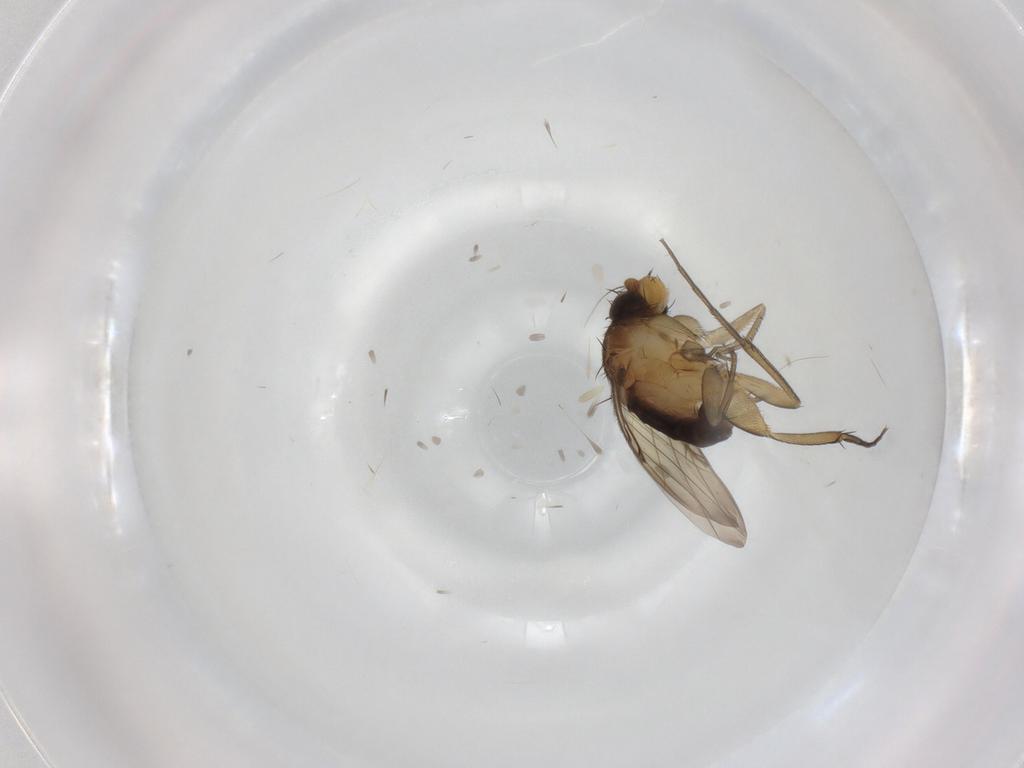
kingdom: Animalia
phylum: Arthropoda
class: Insecta
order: Diptera
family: Phoridae
